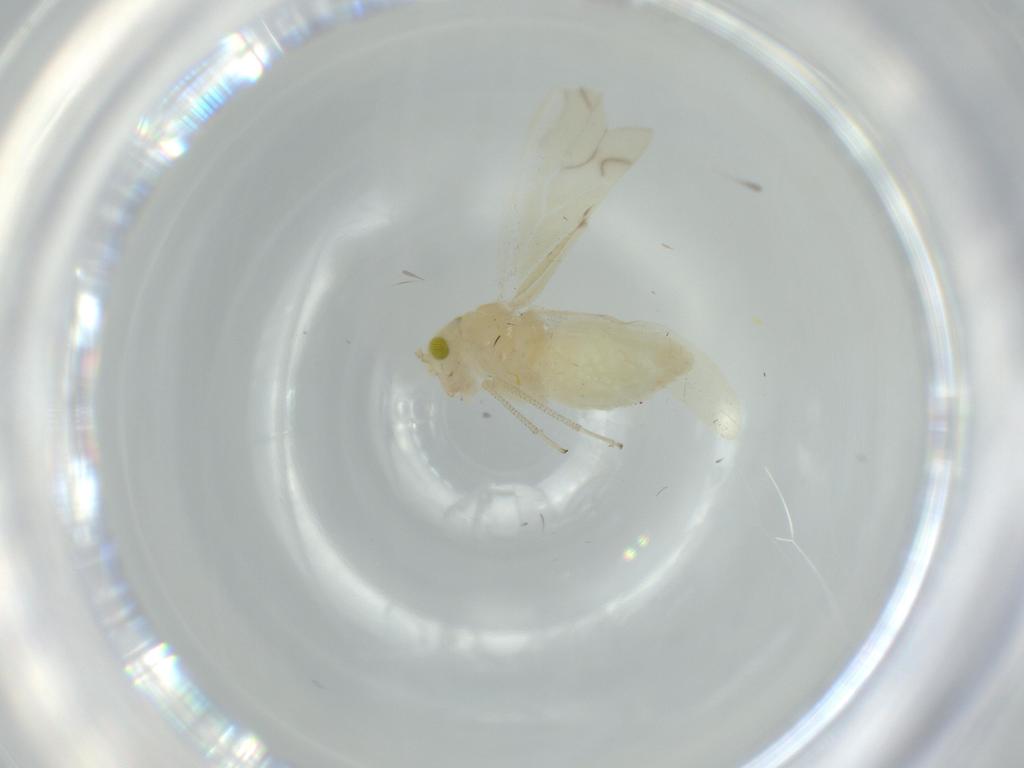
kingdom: Animalia
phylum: Arthropoda
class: Insecta
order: Psocodea
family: Caeciliusidae
